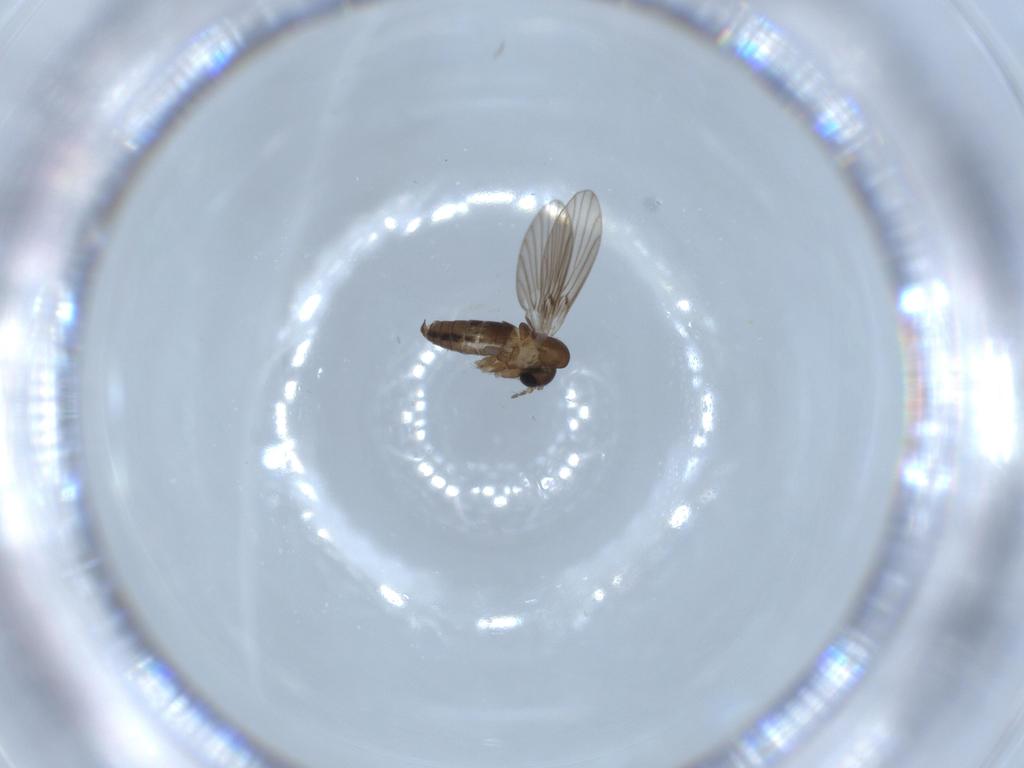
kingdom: Animalia
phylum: Arthropoda
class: Insecta
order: Diptera
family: Psychodidae
